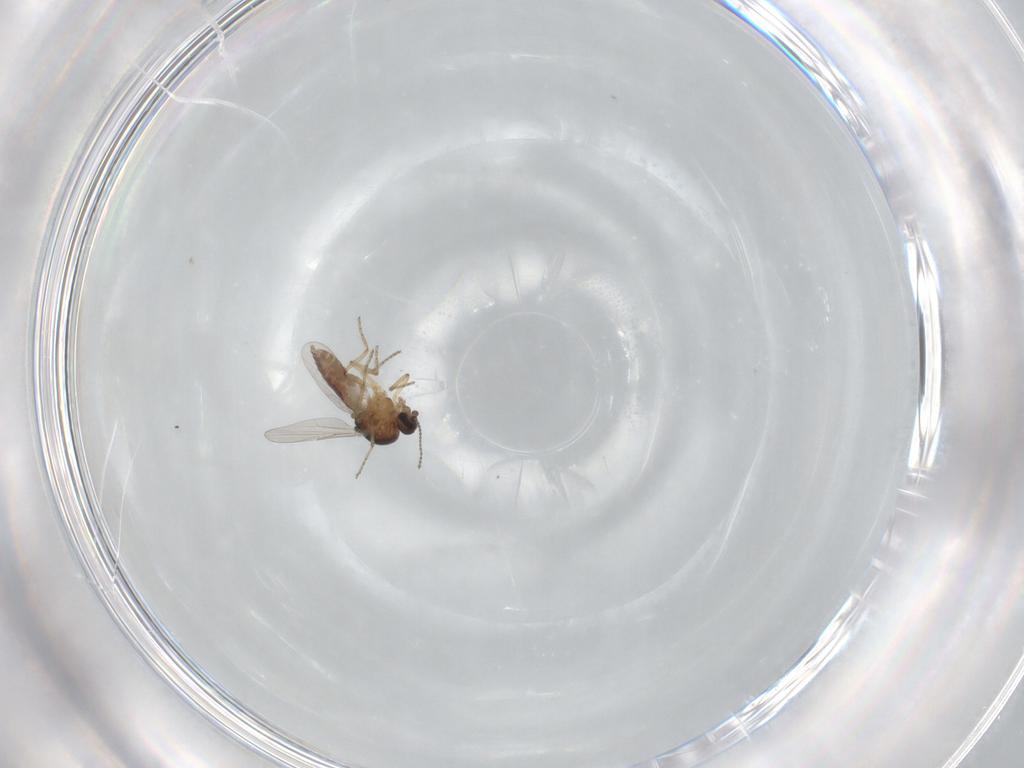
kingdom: Animalia
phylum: Arthropoda
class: Insecta
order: Diptera
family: Ceratopogonidae
